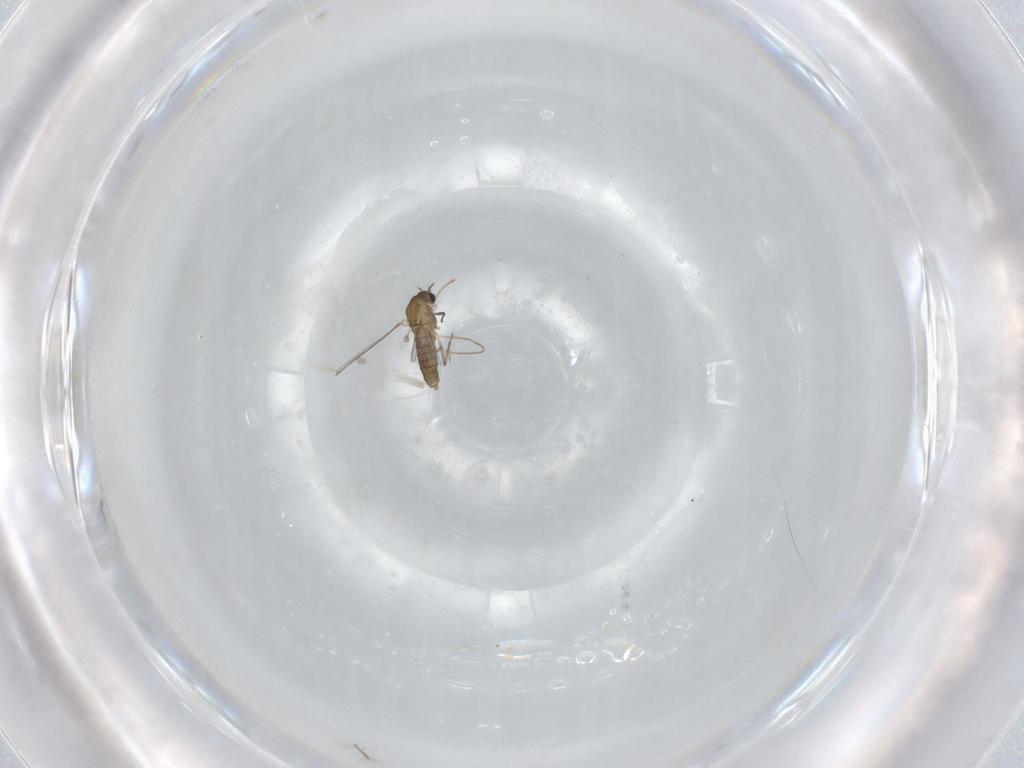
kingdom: Animalia
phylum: Arthropoda
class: Insecta
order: Diptera
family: Chironomidae
